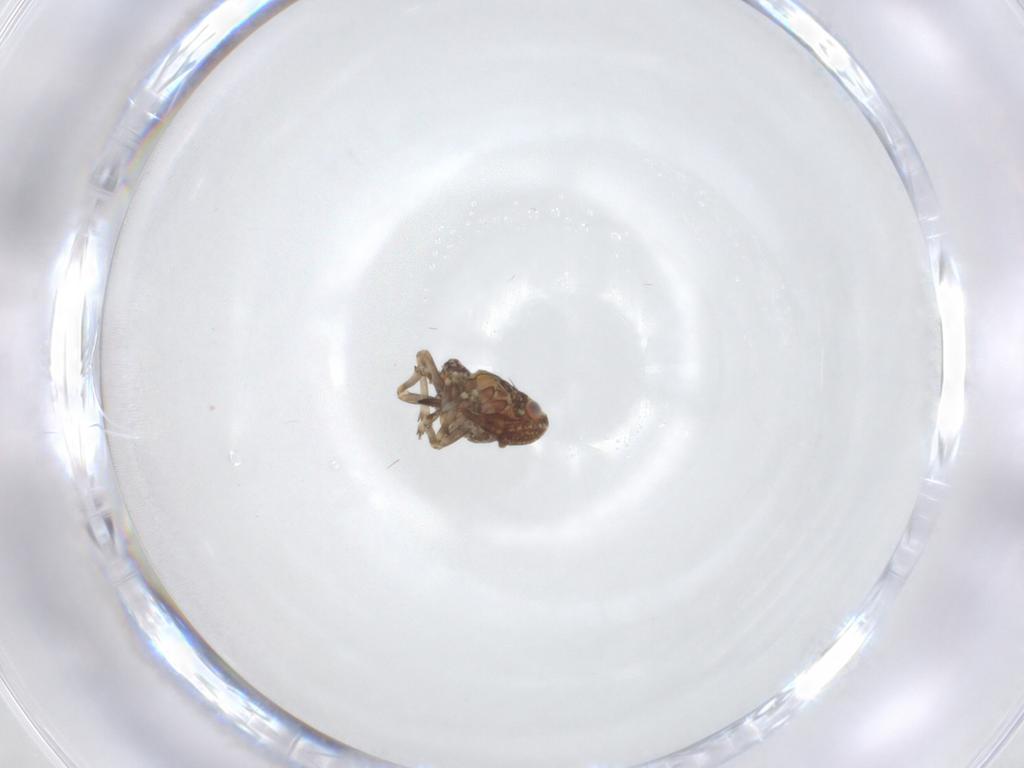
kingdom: Animalia
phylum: Arthropoda
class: Insecta
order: Hemiptera
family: Tropiduchidae
